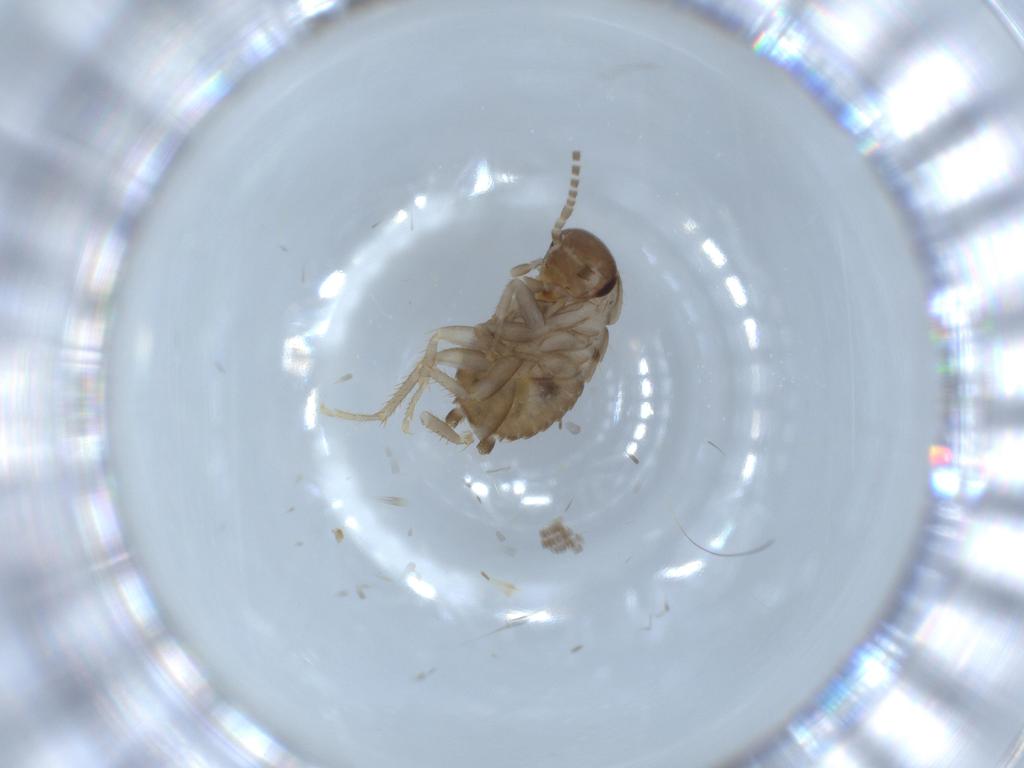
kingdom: Animalia
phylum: Arthropoda
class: Insecta
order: Blattodea
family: Ectobiidae
